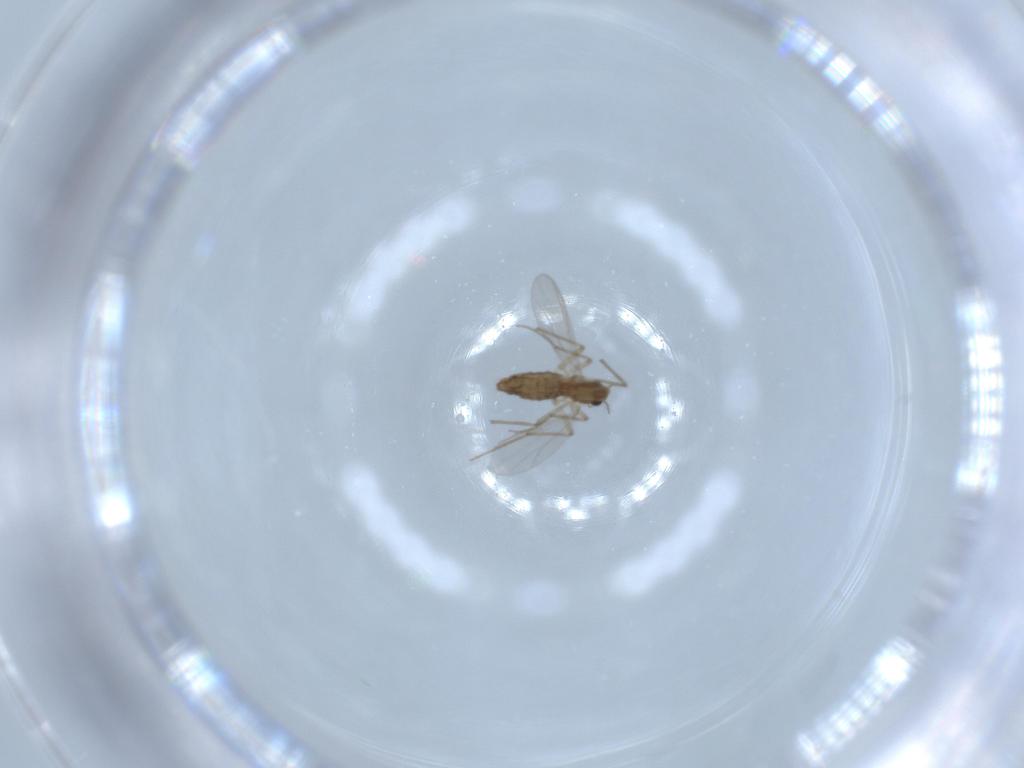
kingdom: Animalia
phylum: Arthropoda
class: Insecta
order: Diptera
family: Chironomidae
